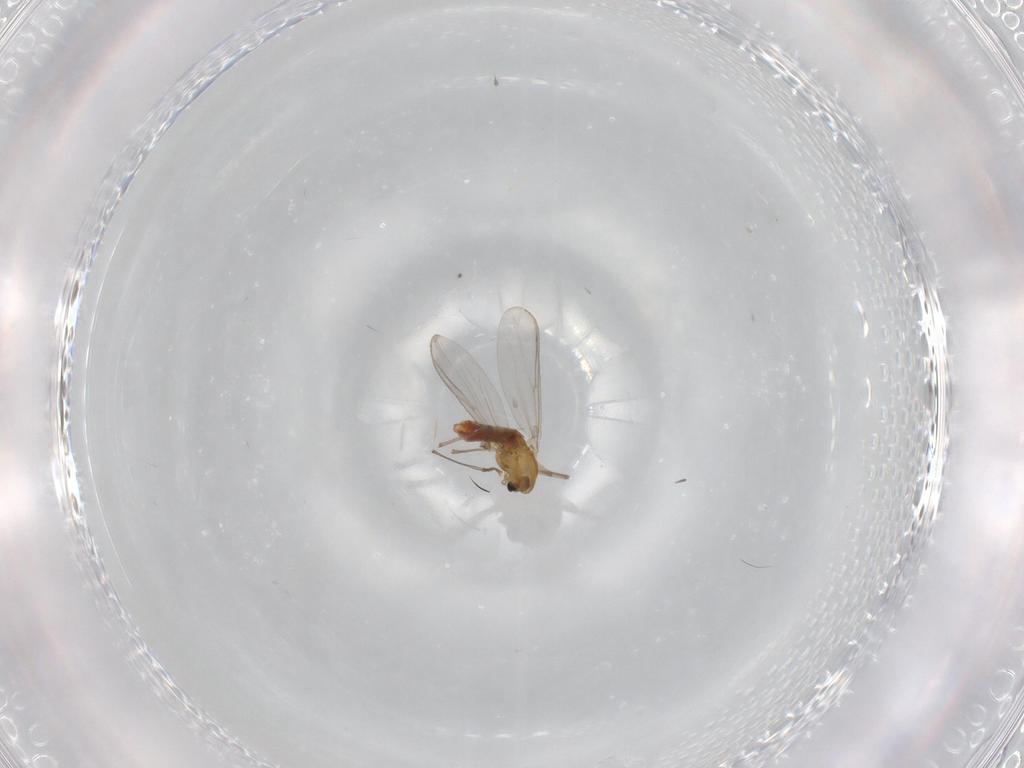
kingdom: Animalia
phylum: Arthropoda
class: Insecta
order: Diptera
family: Chironomidae
